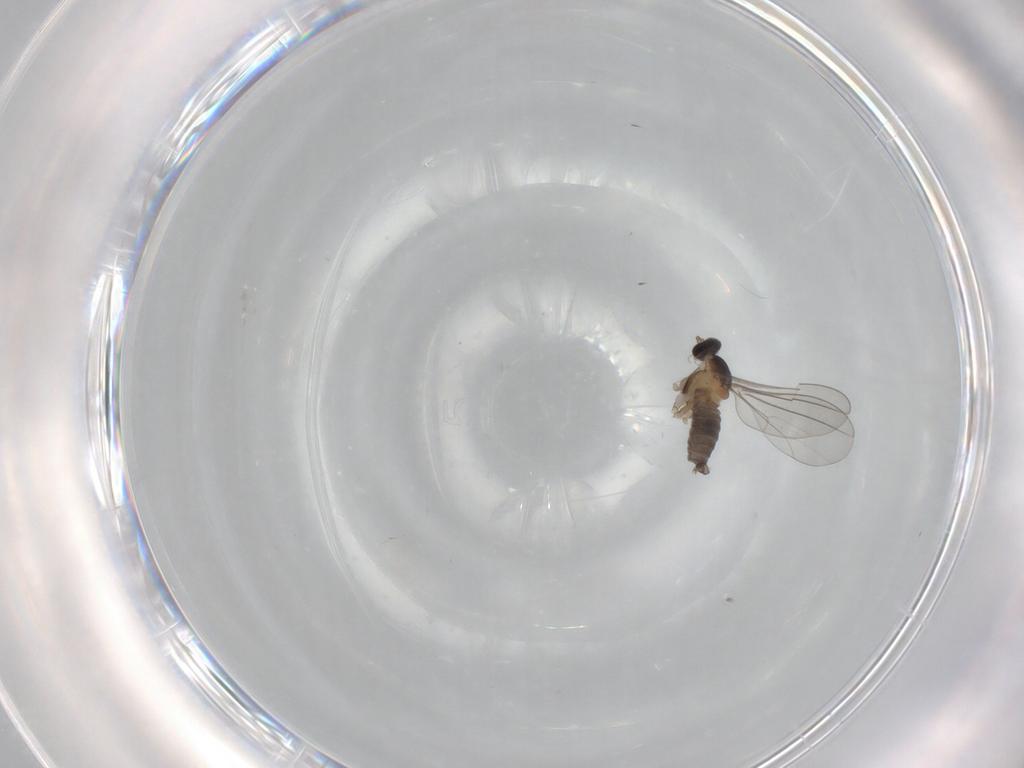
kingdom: Animalia
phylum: Arthropoda
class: Insecta
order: Diptera
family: Cecidomyiidae
